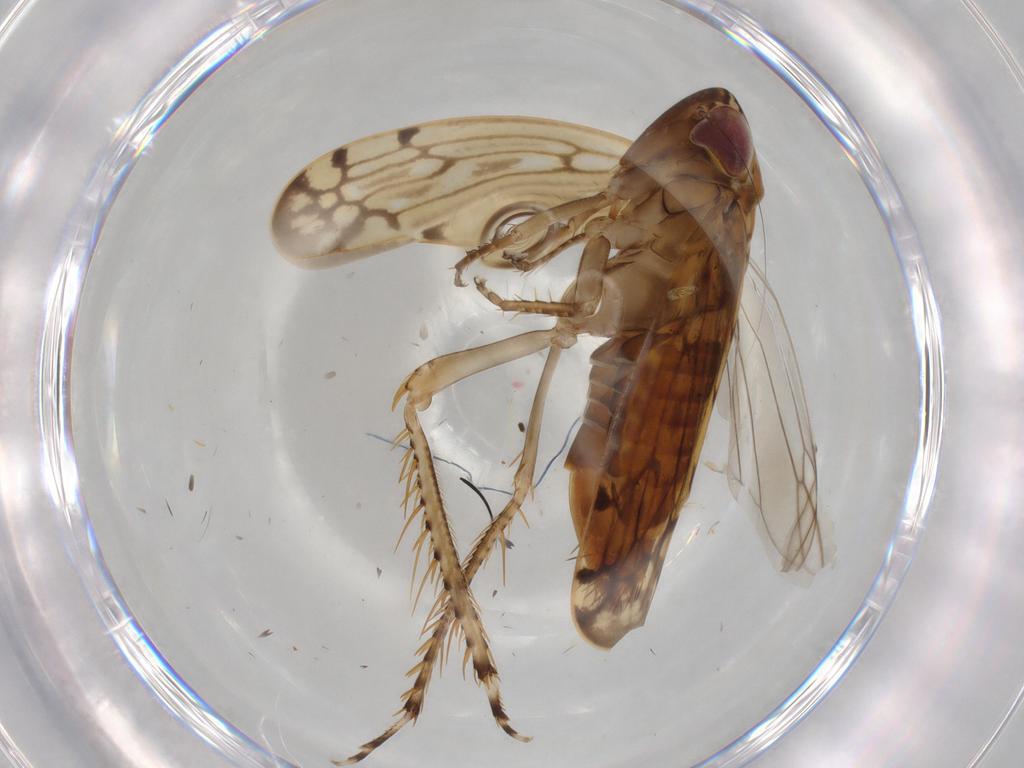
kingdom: Animalia
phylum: Arthropoda
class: Insecta
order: Hemiptera
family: Cicadellidae
